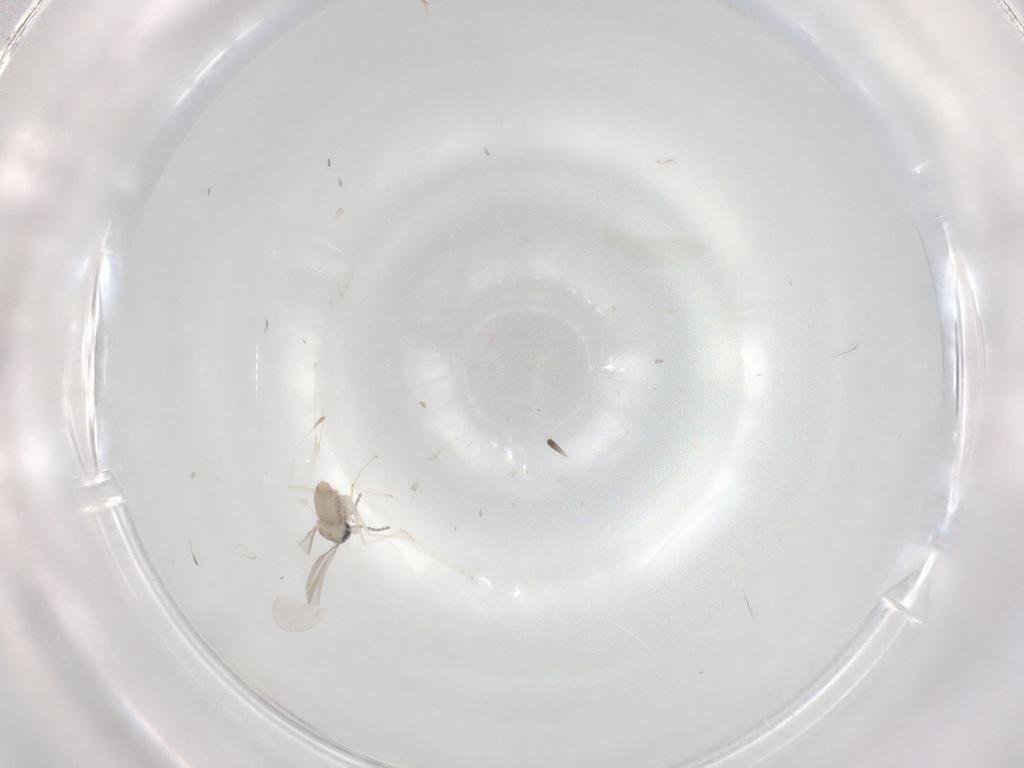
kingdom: Animalia
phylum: Arthropoda
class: Insecta
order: Diptera
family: Cecidomyiidae
